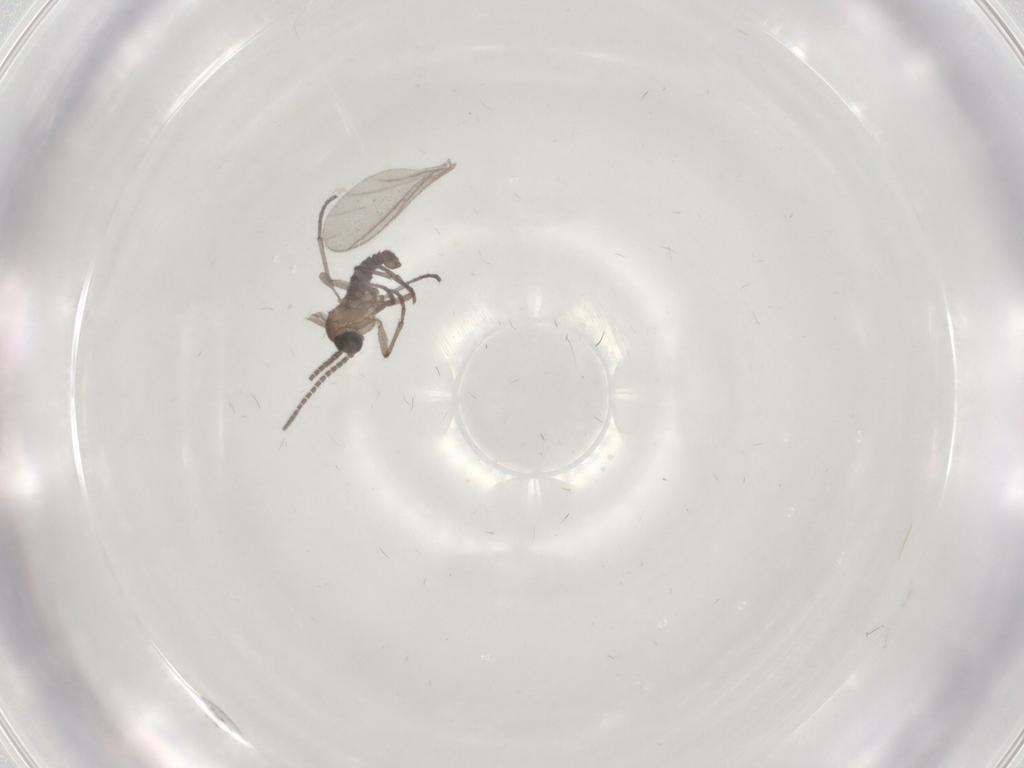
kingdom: Animalia
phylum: Arthropoda
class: Insecta
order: Diptera
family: Sciaridae
